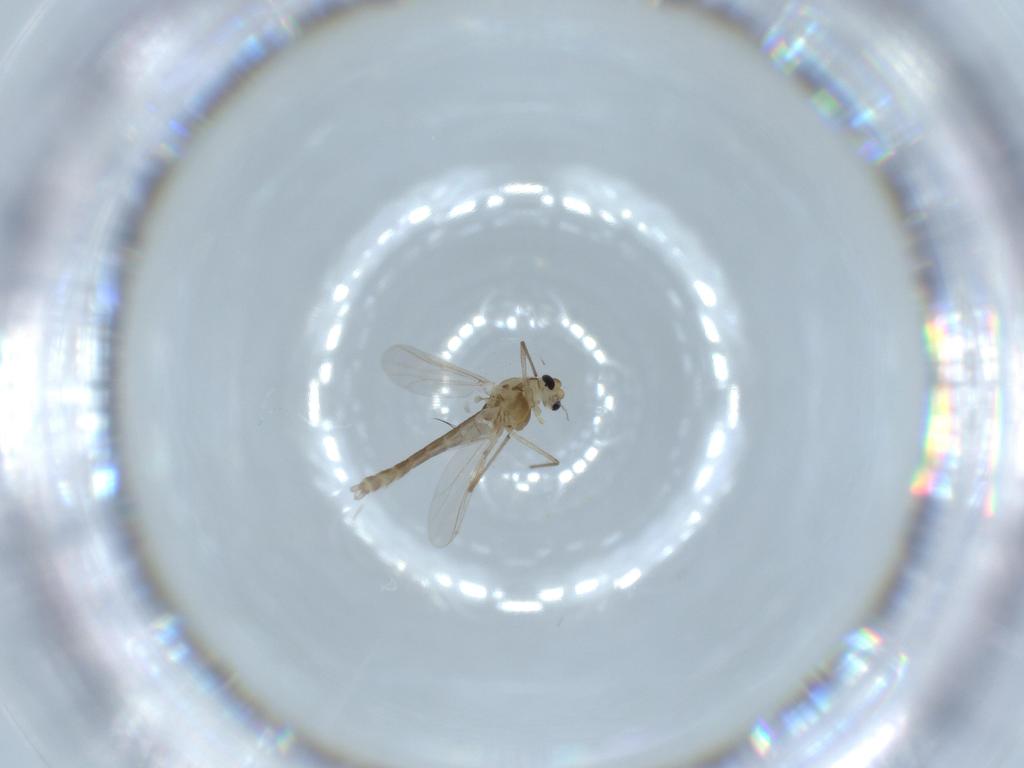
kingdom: Animalia
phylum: Arthropoda
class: Insecta
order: Diptera
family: Chironomidae
